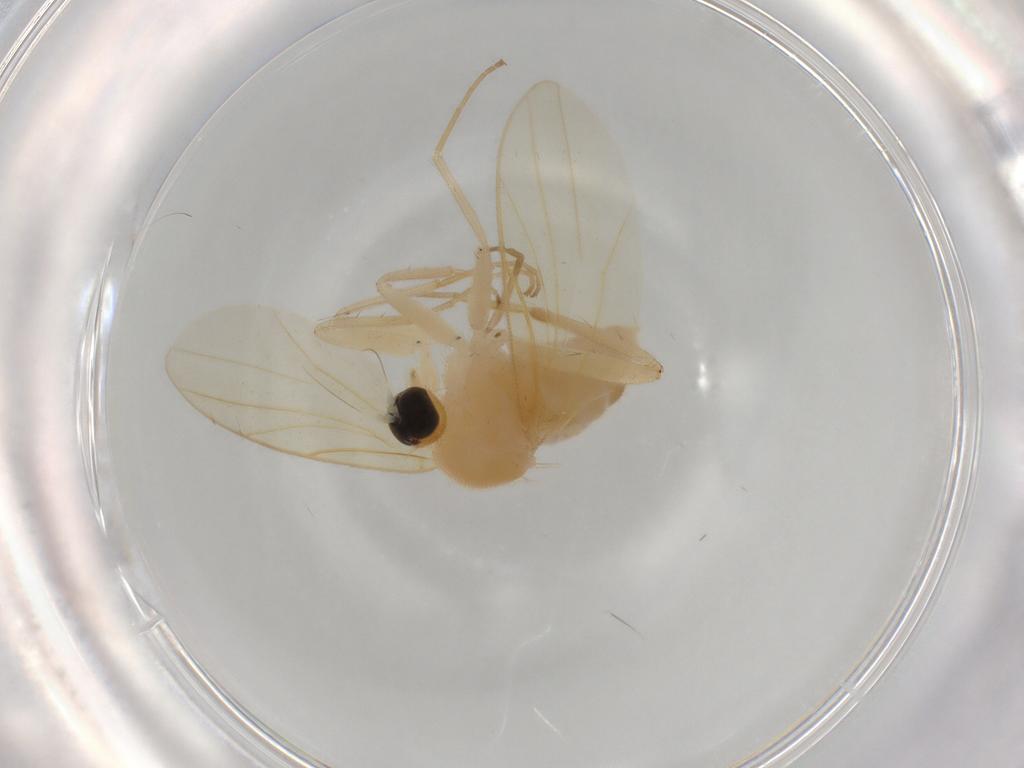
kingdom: Animalia
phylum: Arthropoda
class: Insecta
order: Diptera
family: Hybotidae
